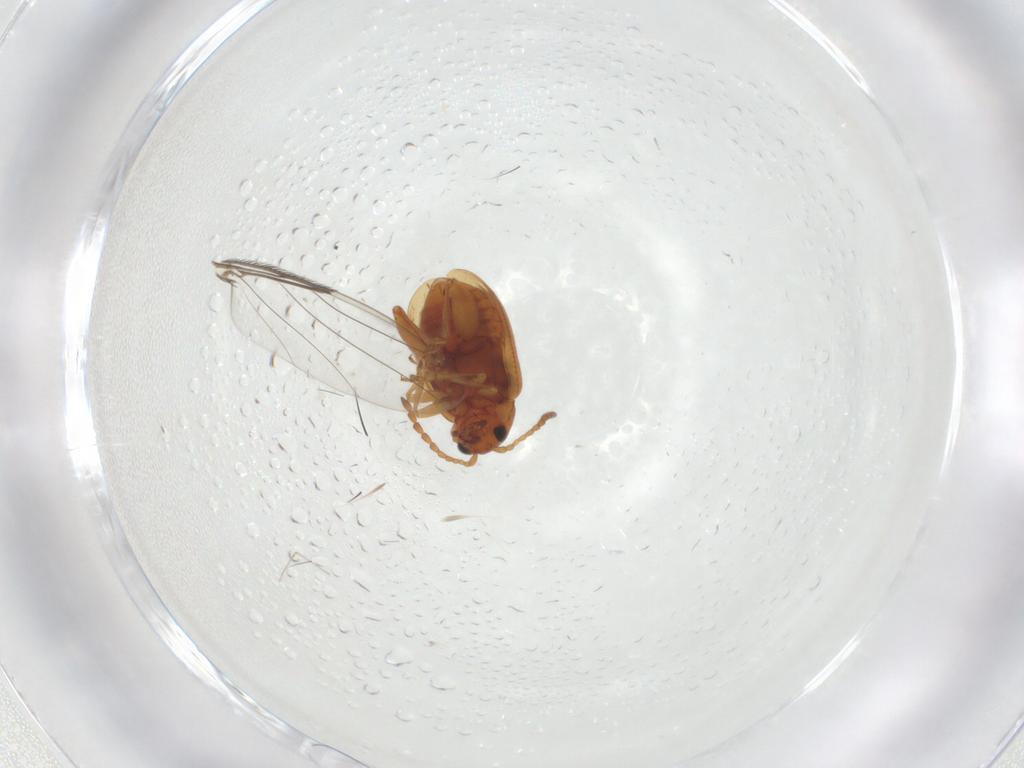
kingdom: Animalia
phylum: Arthropoda
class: Insecta
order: Coleoptera
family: Chrysomelidae
